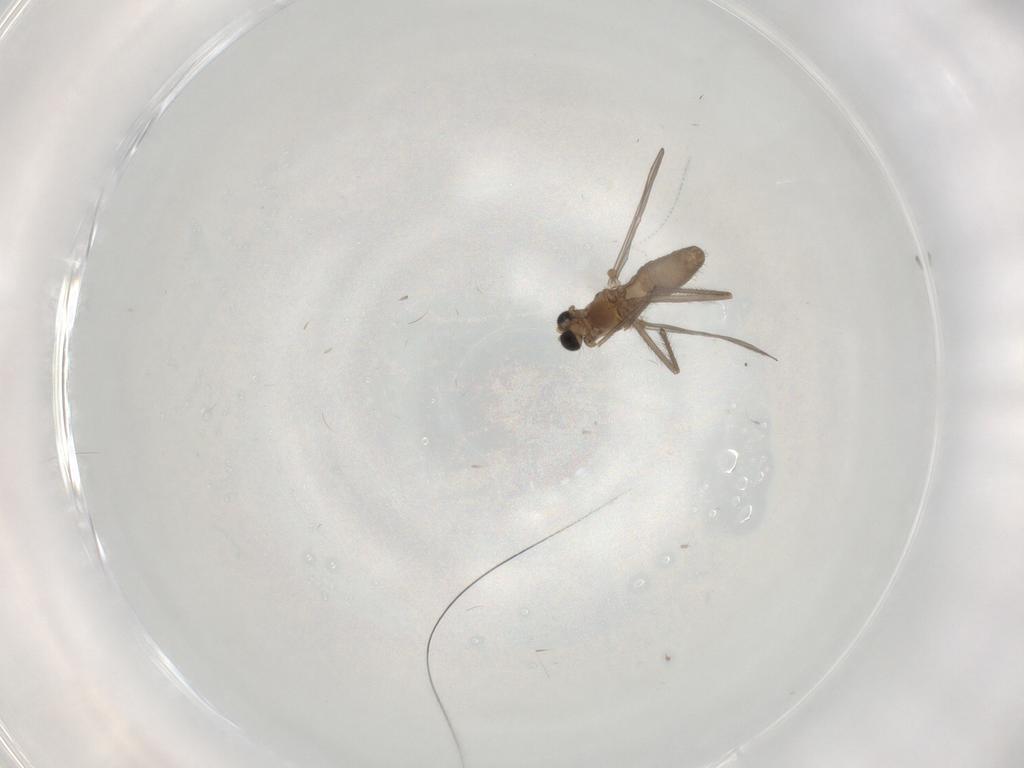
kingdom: Animalia
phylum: Arthropoda
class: Insecta
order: Diptera
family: Chironomidae
